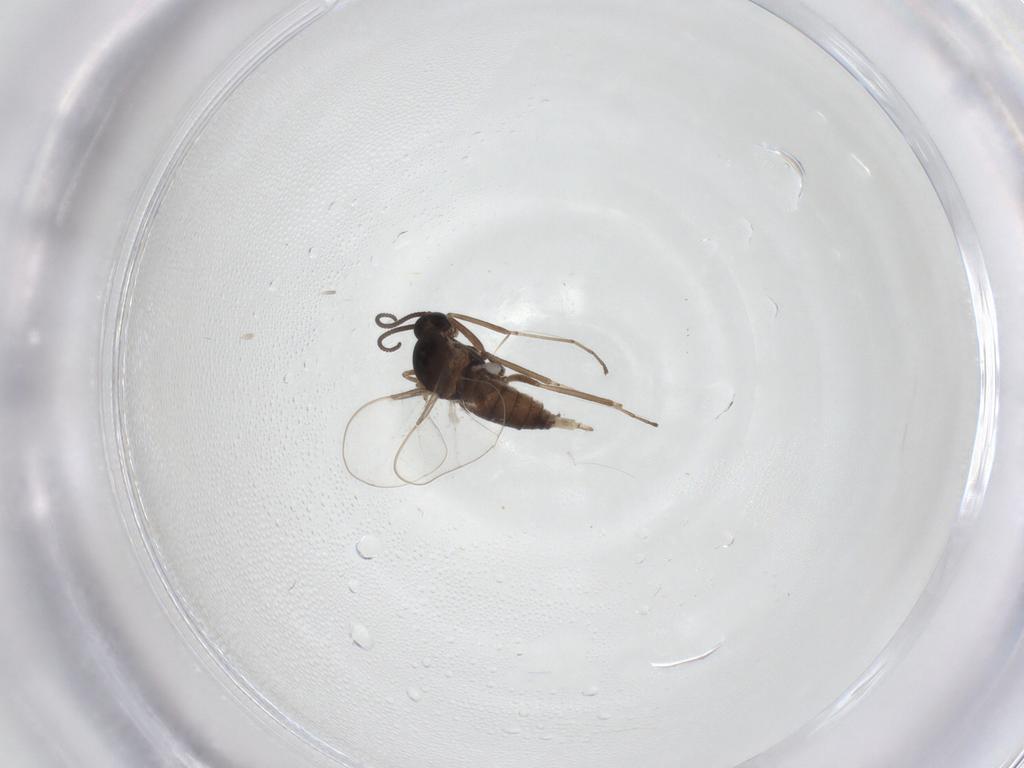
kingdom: Animalia
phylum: Arthropoda
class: Insecta
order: Diptera
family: Cecidomyiidae
